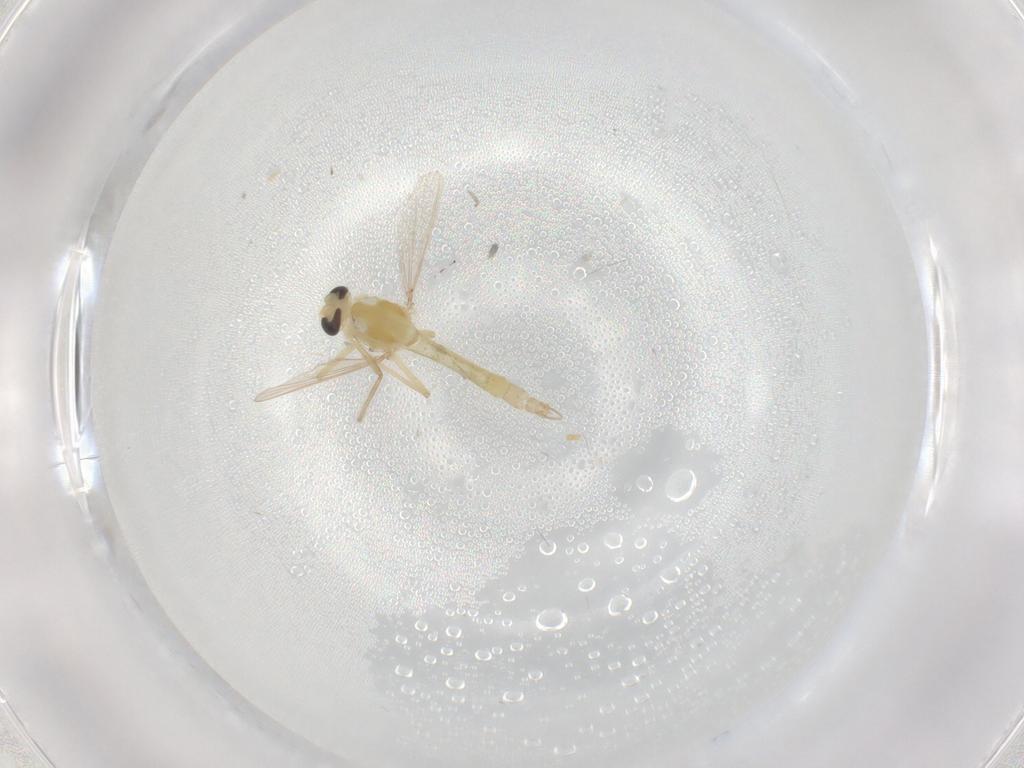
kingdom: Animalia
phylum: Arthropoda
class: Insecta
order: Diptera
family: Chironomidae
